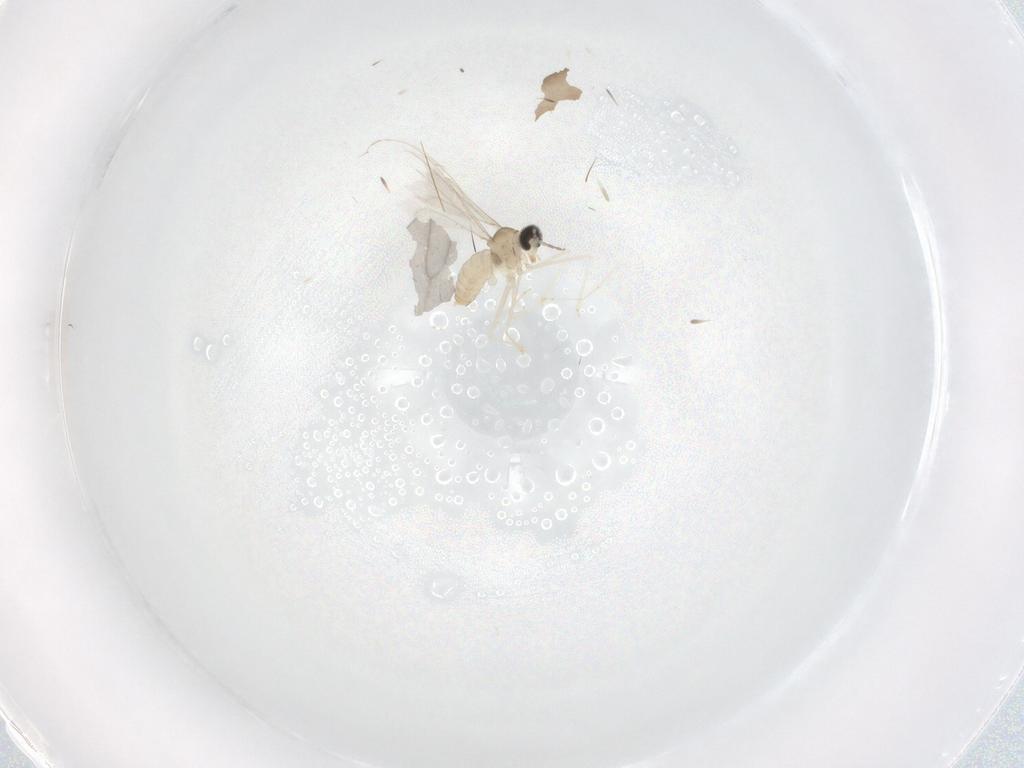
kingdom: Animalia
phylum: Arthropoda
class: Insecta
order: Diptera
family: Cecidomyiidae
